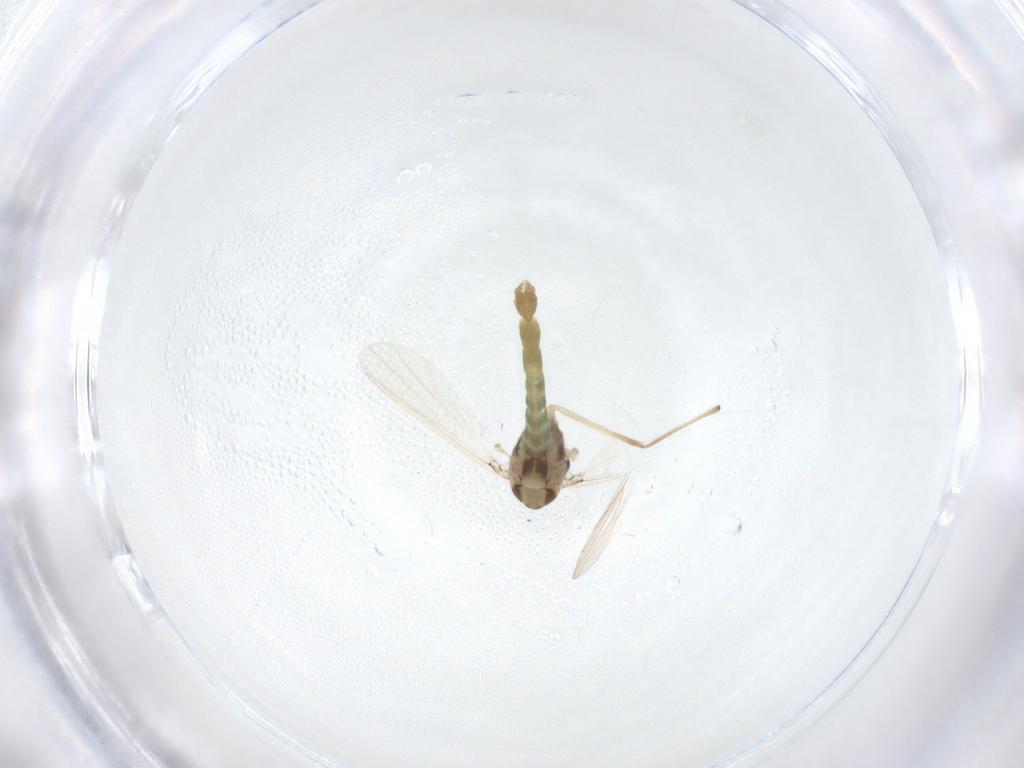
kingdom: Animalia
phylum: Arthropoda
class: Insecta
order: Diptera
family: Chironomidae
